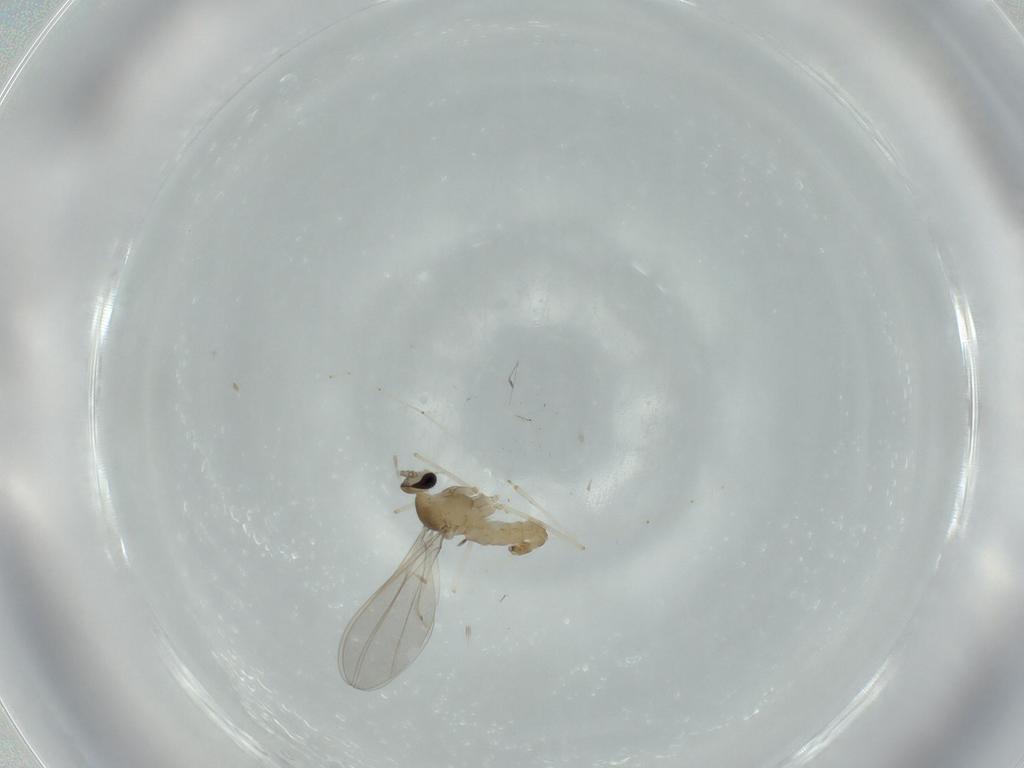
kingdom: Animalia
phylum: Arthropoda
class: Insecta
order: Diptera
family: Cecidomyiidae
